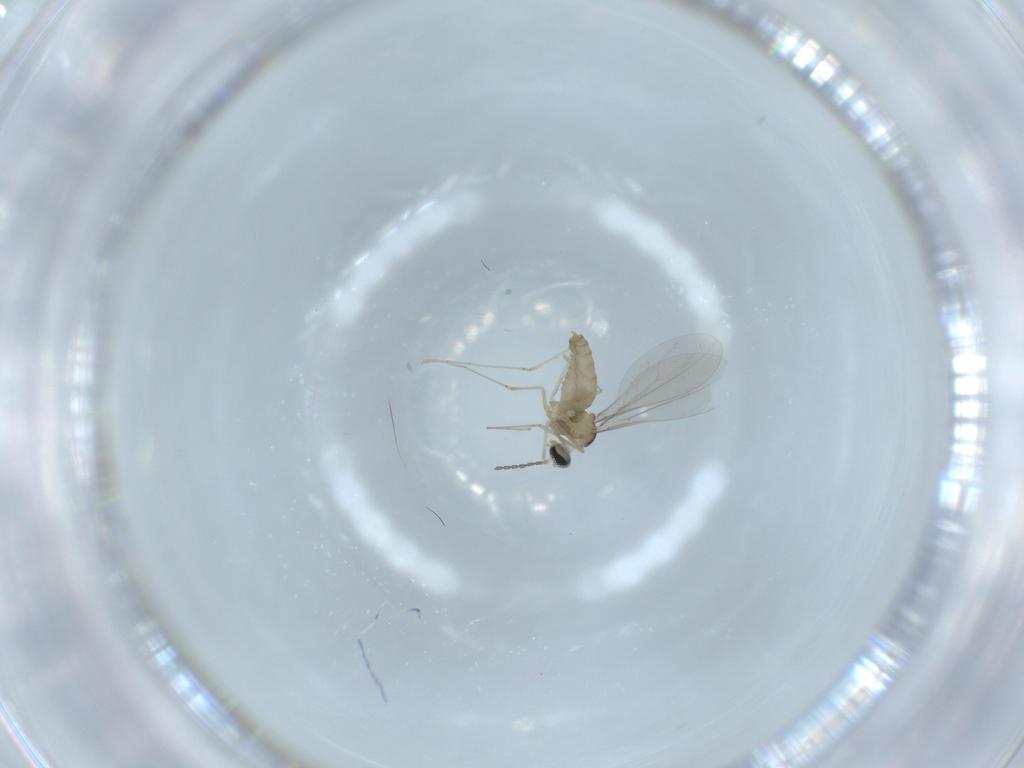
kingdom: Animalia
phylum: Arthropoda
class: Insecta
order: Diptera
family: Cecidomyiidae
